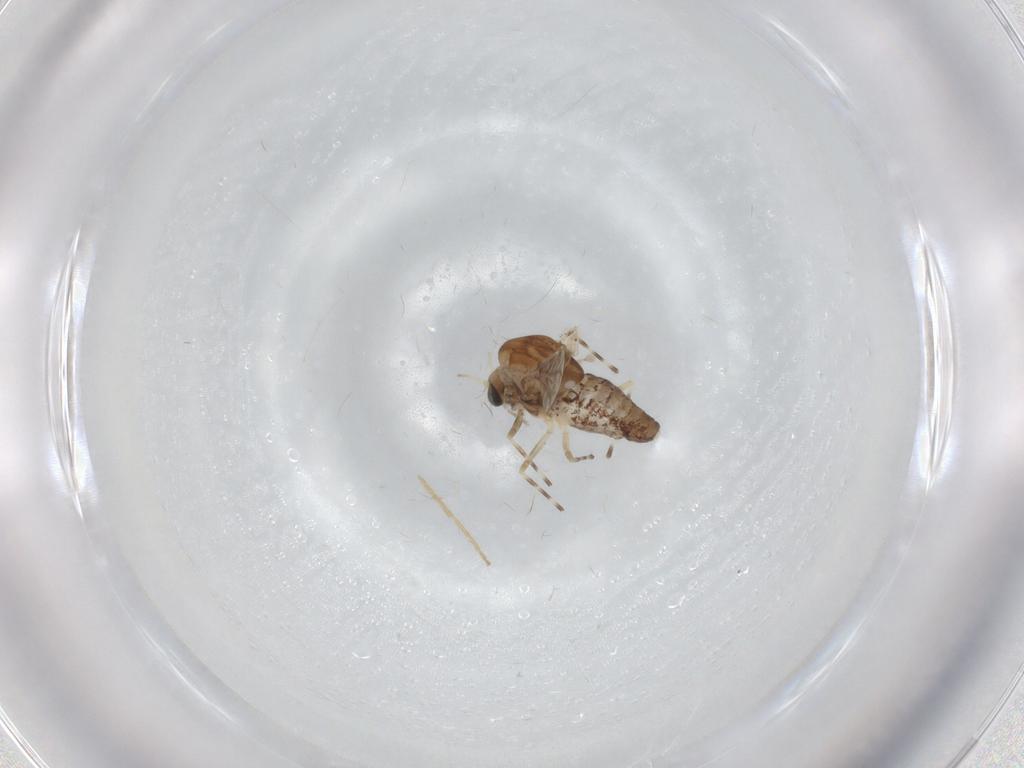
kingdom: Animalia
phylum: Arthropoda
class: Insecta
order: Diptera
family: Chironomidae
